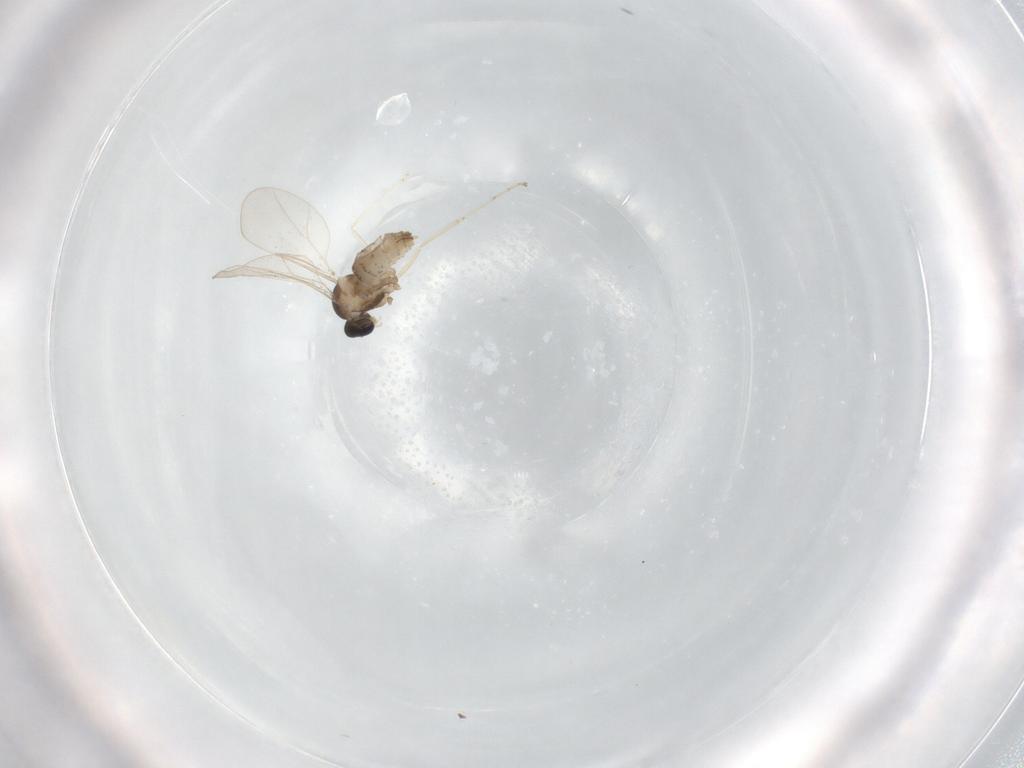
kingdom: Animalia
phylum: Arthropoda
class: Insecta
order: Diptera
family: Cecidomyiidae
